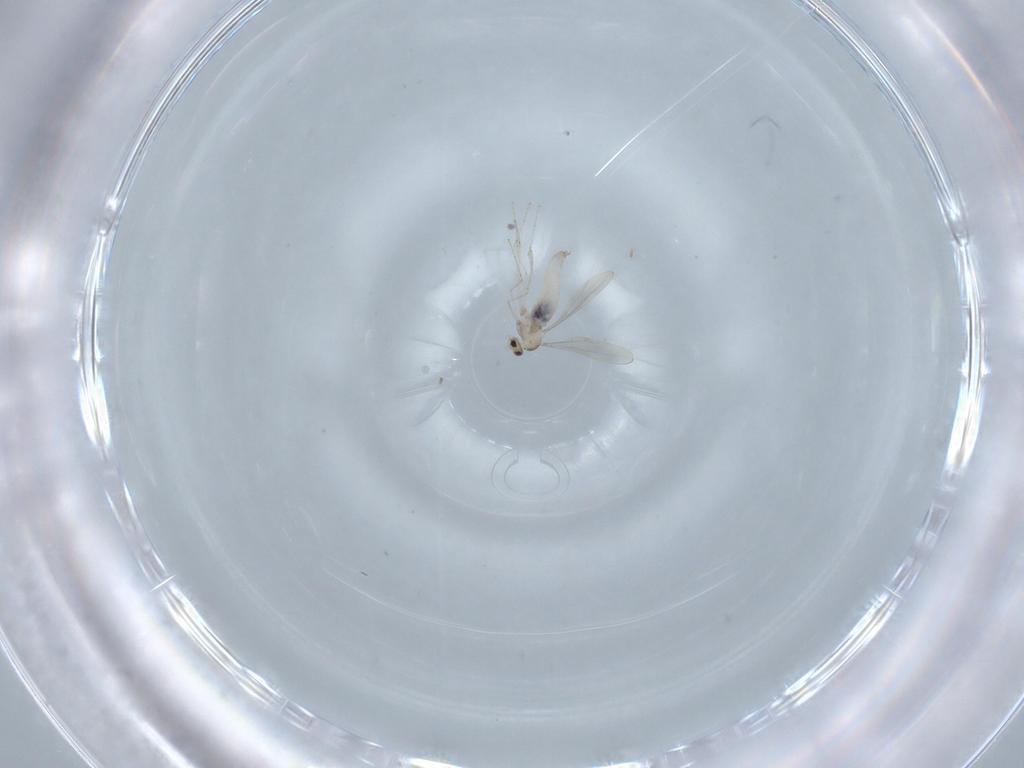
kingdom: Animalia
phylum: Arthropoda
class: Insecta
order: Diptera
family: Cecidomyiidae
